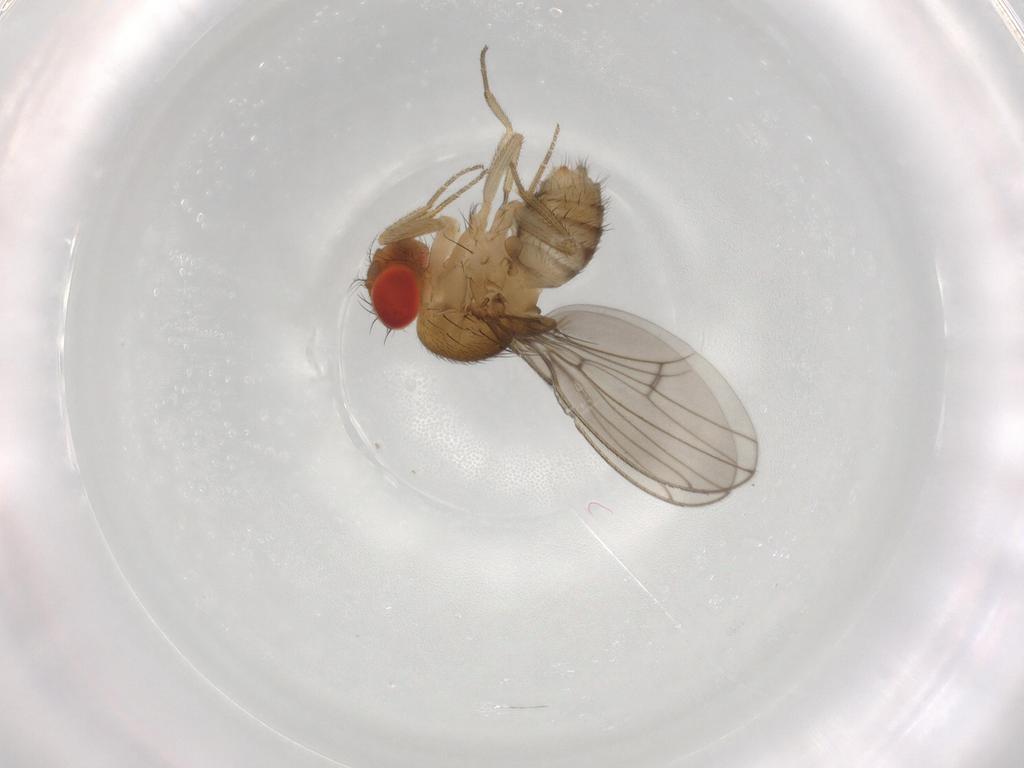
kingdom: Animalia
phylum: Arthropoda
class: Insecta
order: Diptera
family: Drosophilidae
